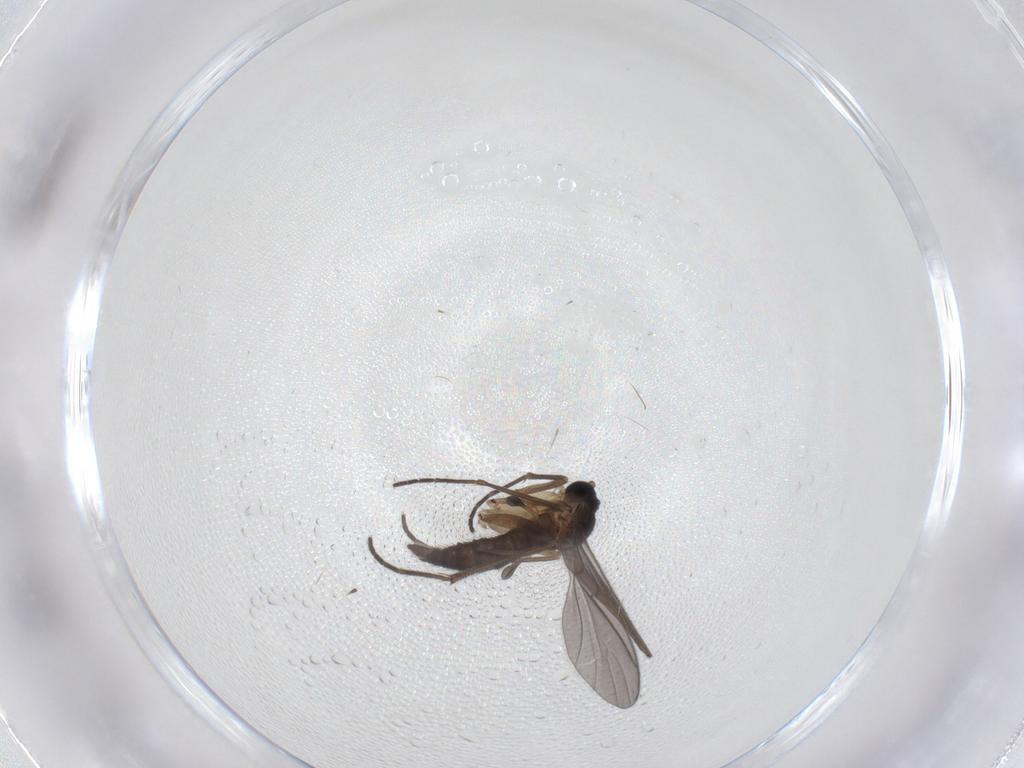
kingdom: Animalia
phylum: Arthropoda
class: Insecta
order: Diptera
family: Sciaridae
